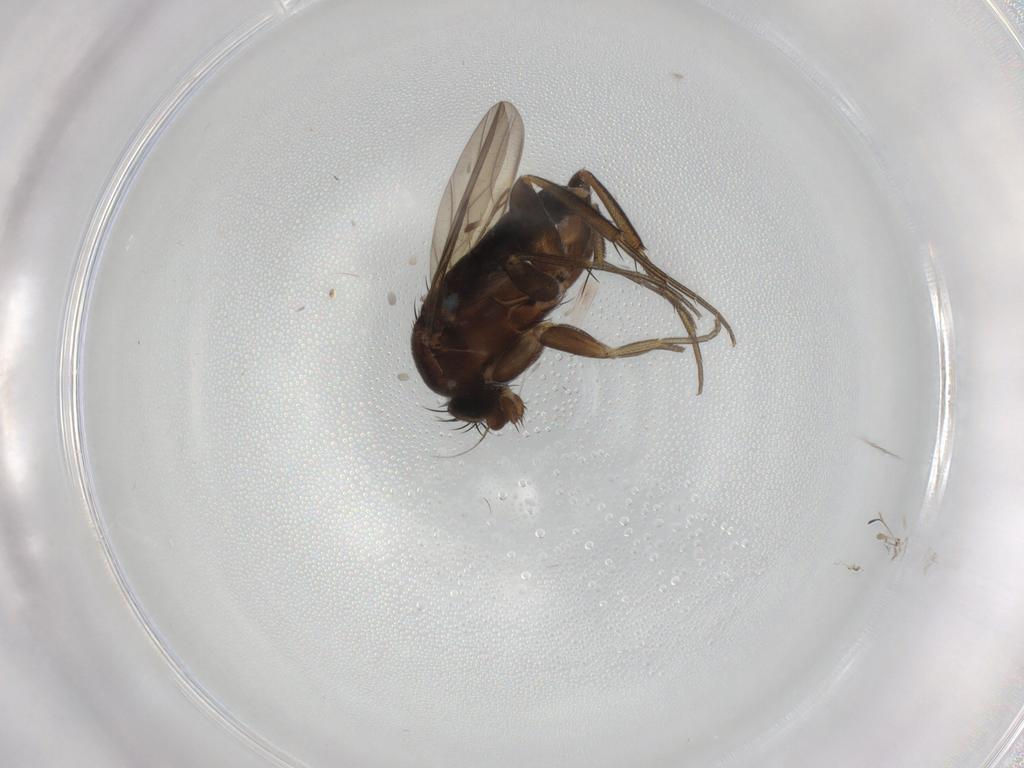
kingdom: Animalia
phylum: Arthropoda
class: Insecta
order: Diptera
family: Phoridae
